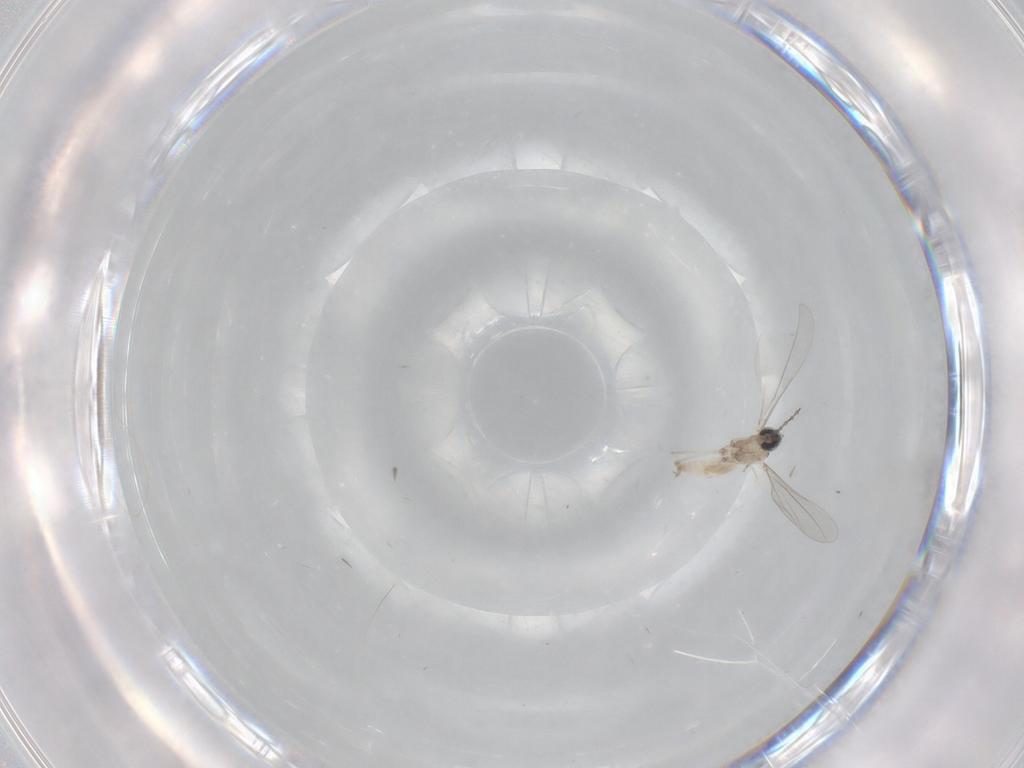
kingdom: Animalia
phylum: Arthropoda
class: Insecta
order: Diptera
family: Cecidomyiidae
